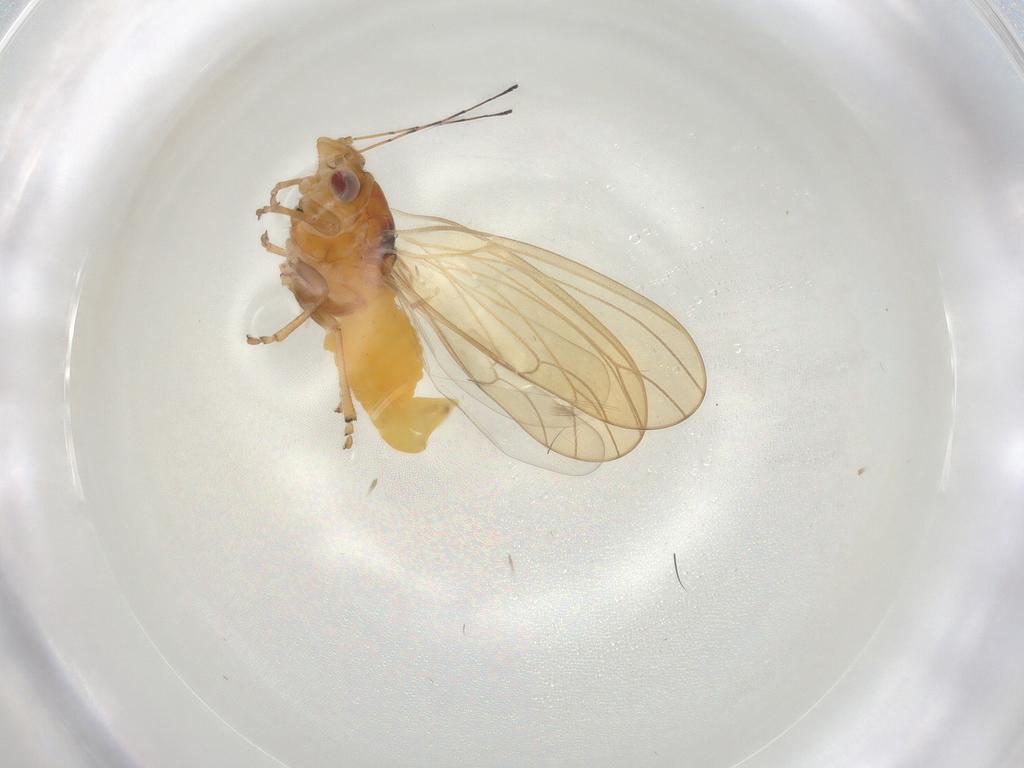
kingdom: Animalia
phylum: Arthropoda
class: Insecta
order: Hemiptera
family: Psylloidea_incertae_sedis
